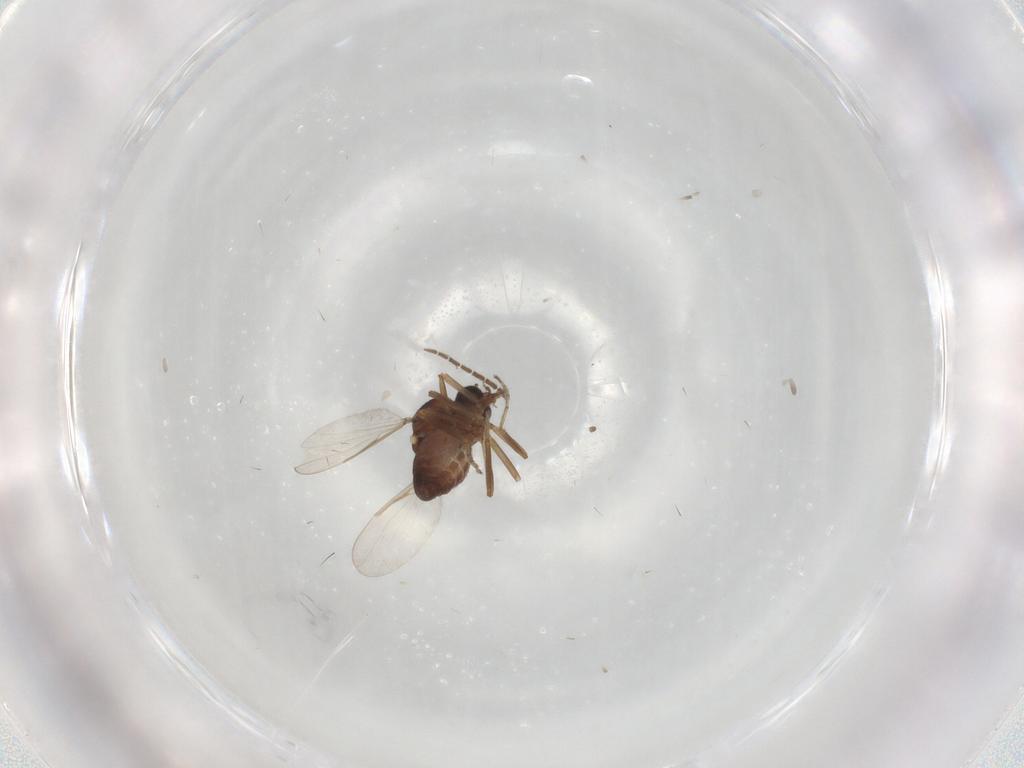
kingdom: Animalia
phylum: Arthropoda
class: Insecta
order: Diptera
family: Ceratopogonidae
